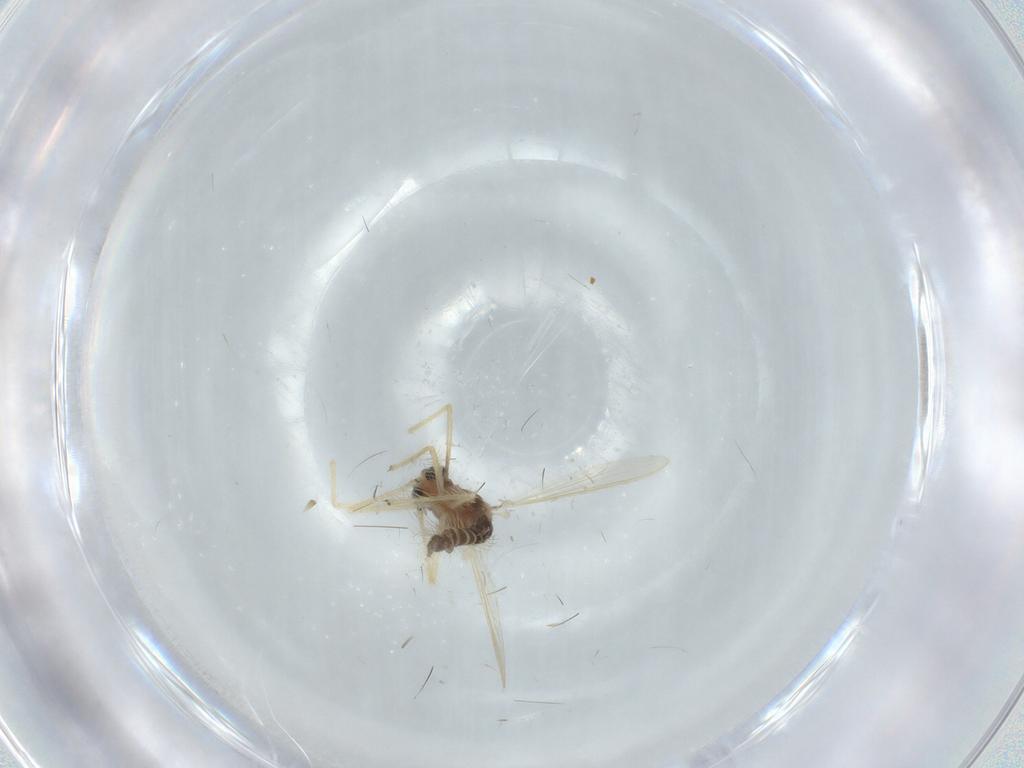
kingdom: Animalia
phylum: Arthropoda
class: Insecta
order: Diptera
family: Chironomidae
